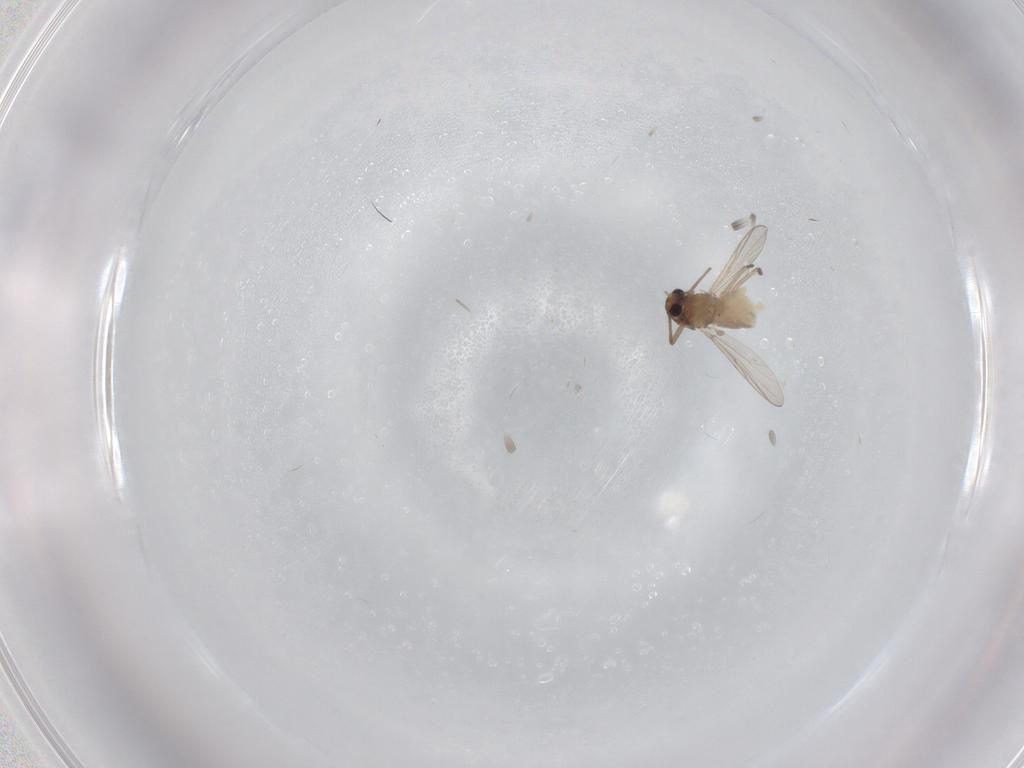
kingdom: Animalia
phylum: Arthropoda
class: Insecta
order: Diptera
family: Chironomidae
